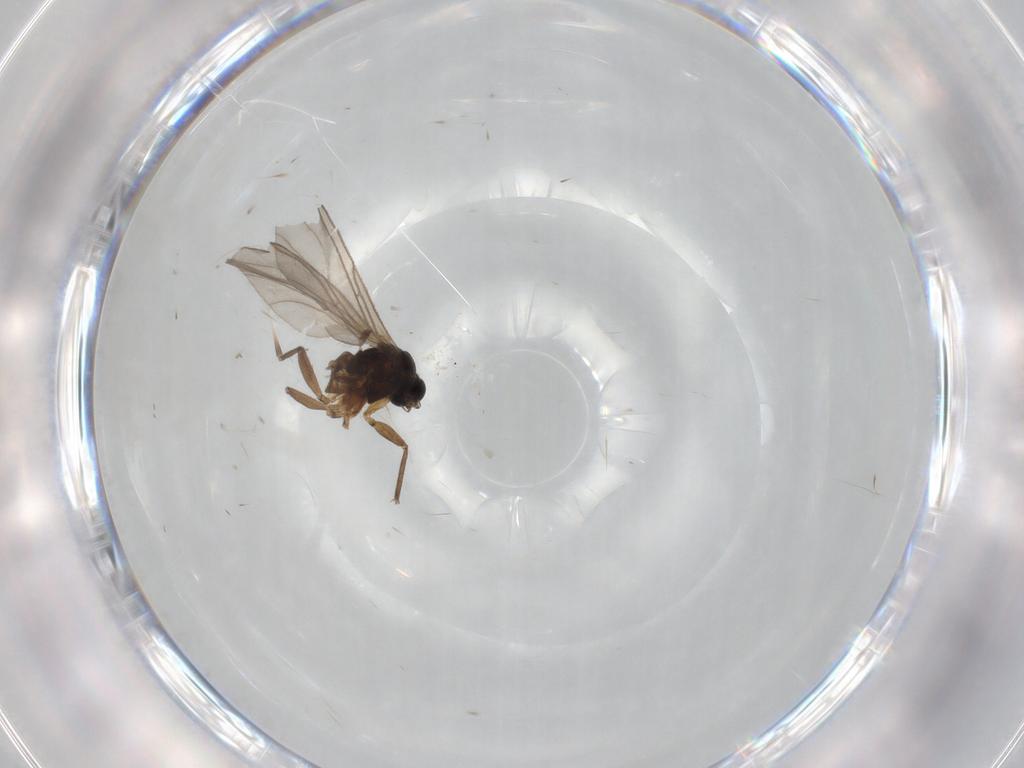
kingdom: Animalia
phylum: Arthropoda
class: Insecta
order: Diptera
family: Sciaridae
